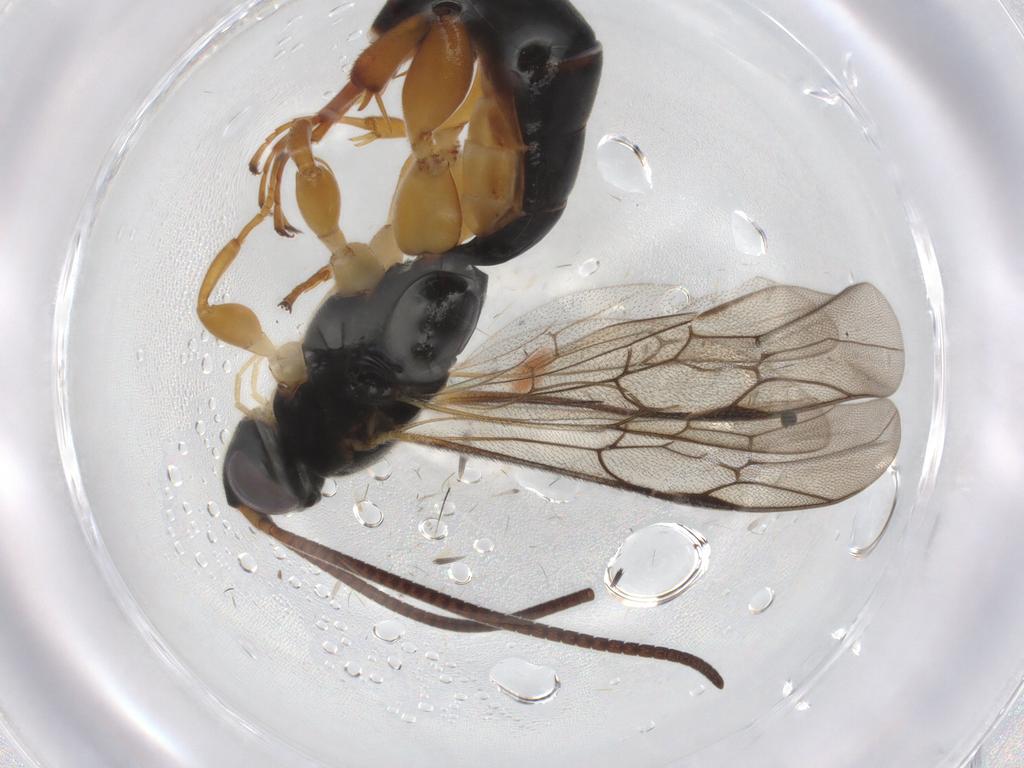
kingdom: Animalia
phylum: Arthropoda
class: Insecta
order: Hymenoptera
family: Ichneumonidae
